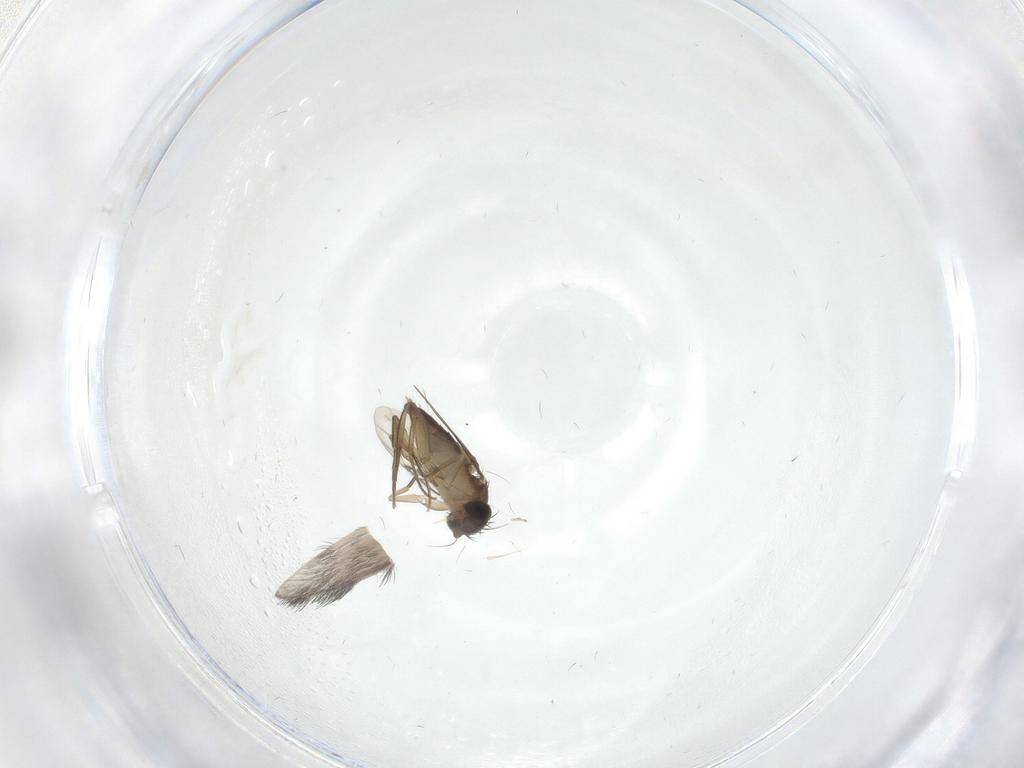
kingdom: Animalia
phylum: Arthropoda
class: Insecta
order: Diptera
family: Phoridae
